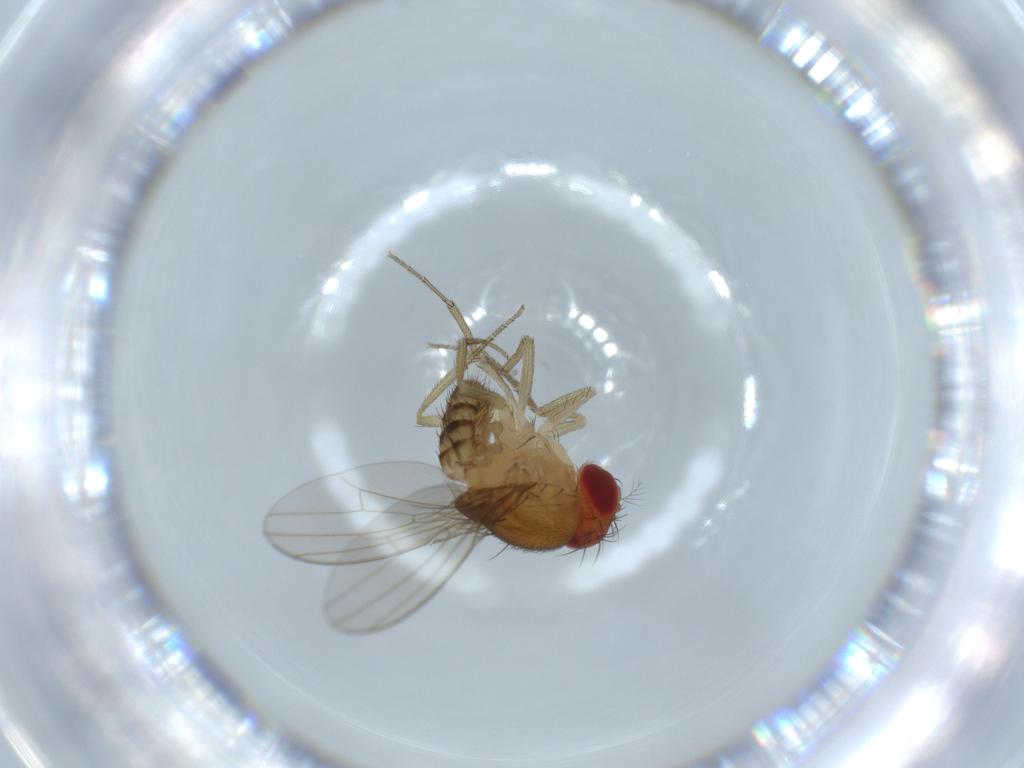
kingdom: Animalia
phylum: Arthropoda
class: Insecta
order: Diptera
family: Drosophilidae
